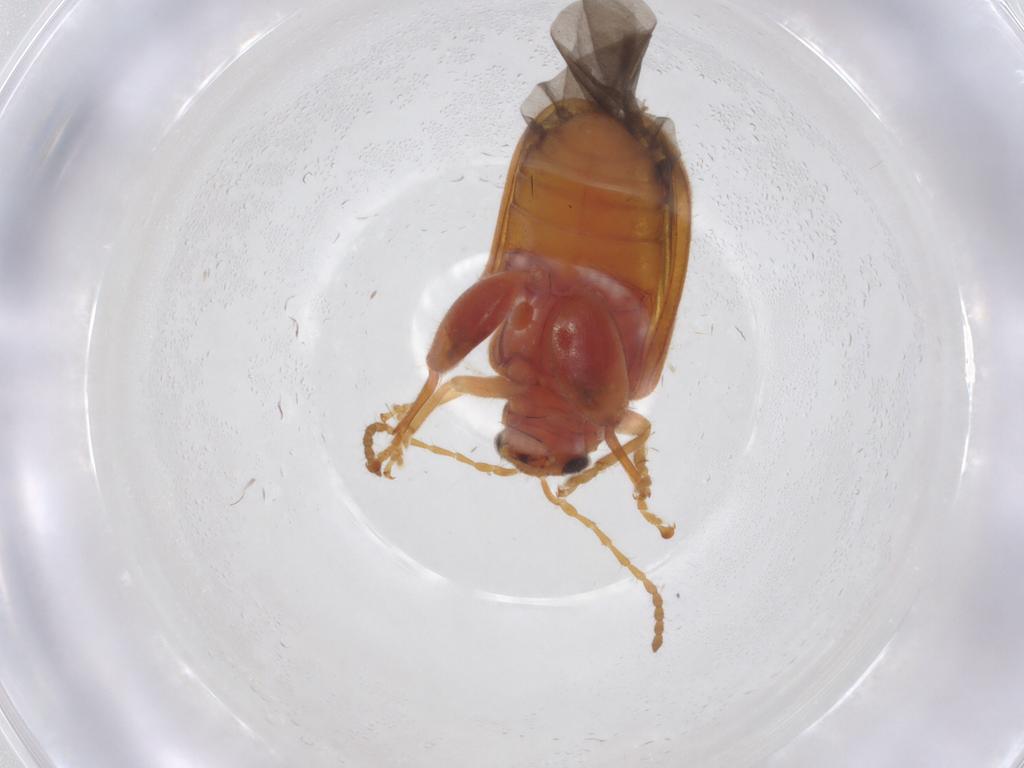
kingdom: Animalia
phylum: Arthropoda
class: Insecta
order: Coleoptera
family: Chrysomelidae
